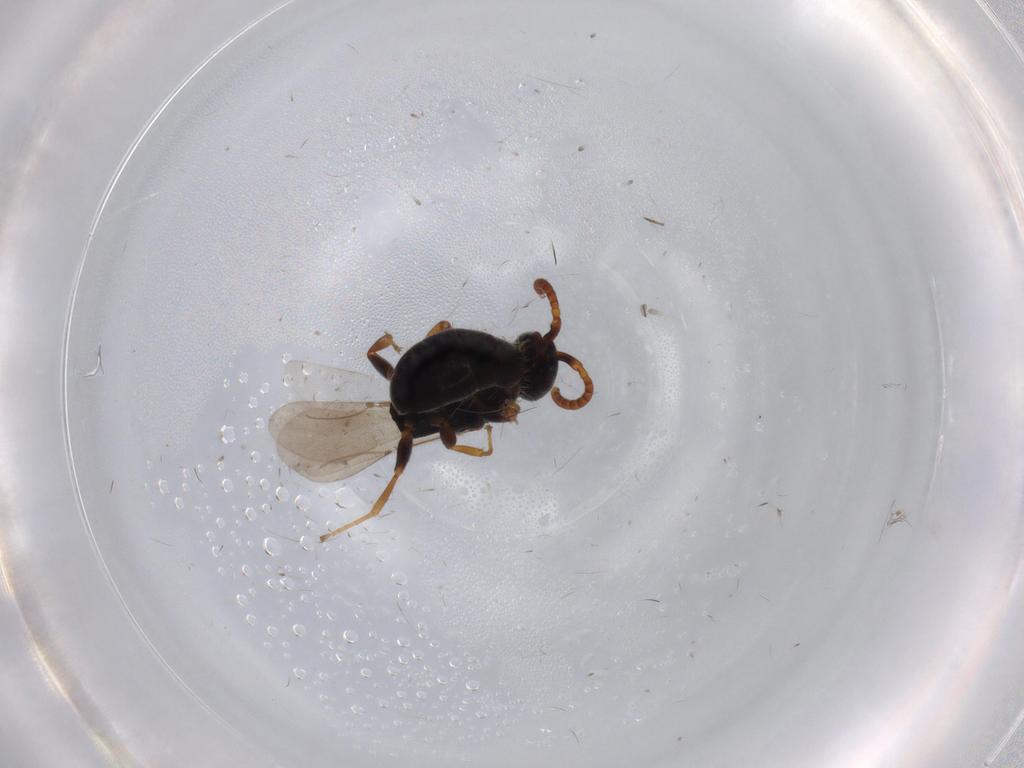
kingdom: Animalia
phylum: Arthropoda
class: Insecta
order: Hymenoptera
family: Bethylidae
